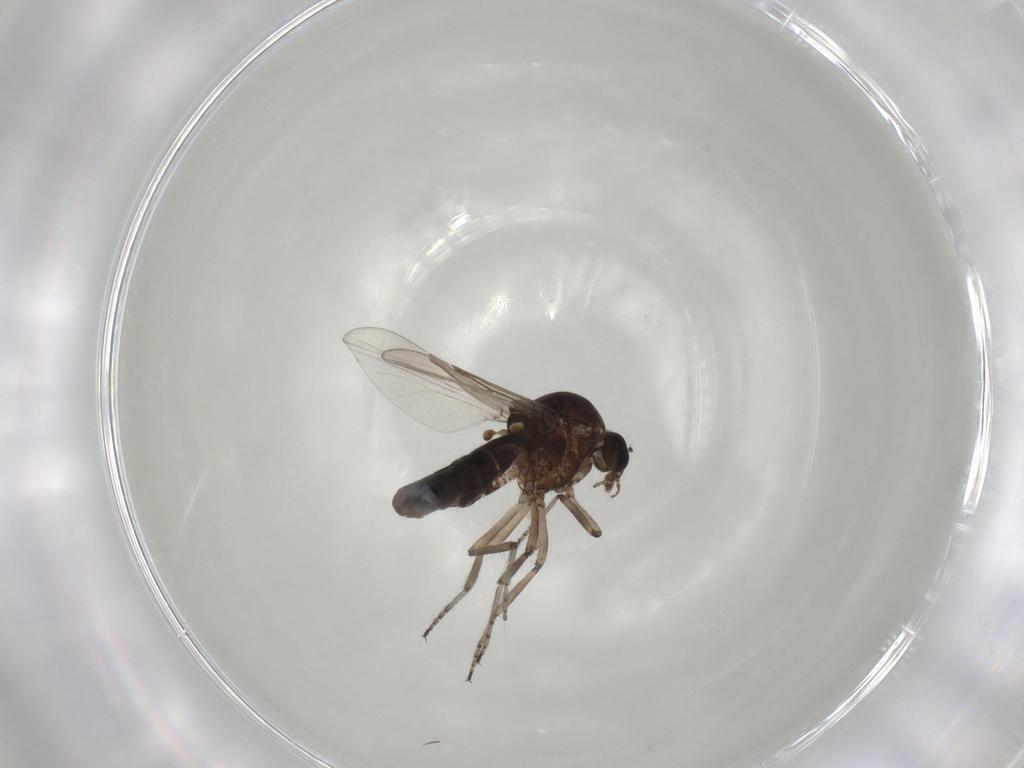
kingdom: Animalia
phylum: Arthropoda
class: Insecta
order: Diptera
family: Ceratopogonidae
